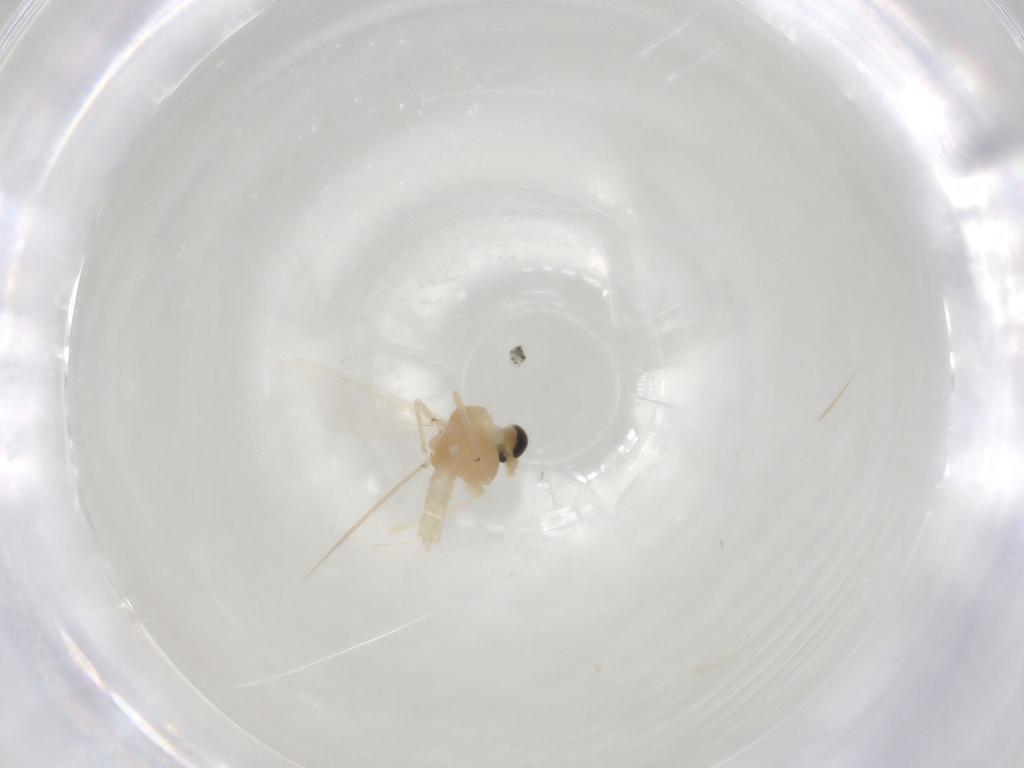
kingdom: Animalia
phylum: Arthropoda
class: Insecta
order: Diptera
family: Chironomidae
